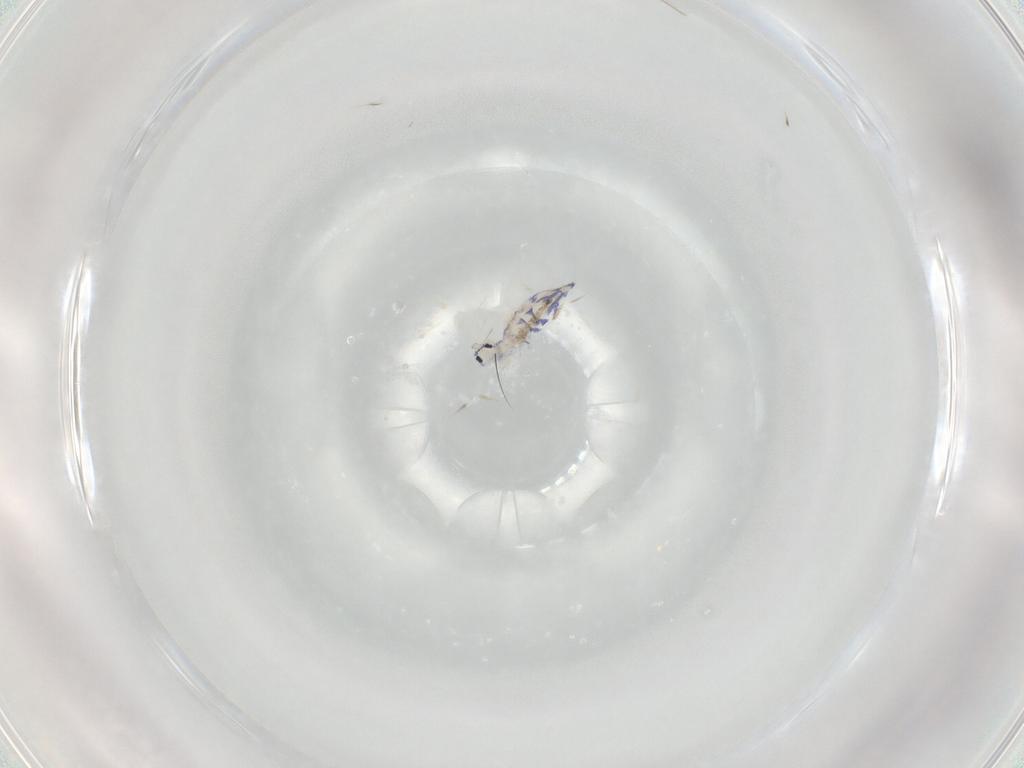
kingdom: Animalia
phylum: Arthropoda
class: Collembola
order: Entomobryomorpha
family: Entomobryidae
